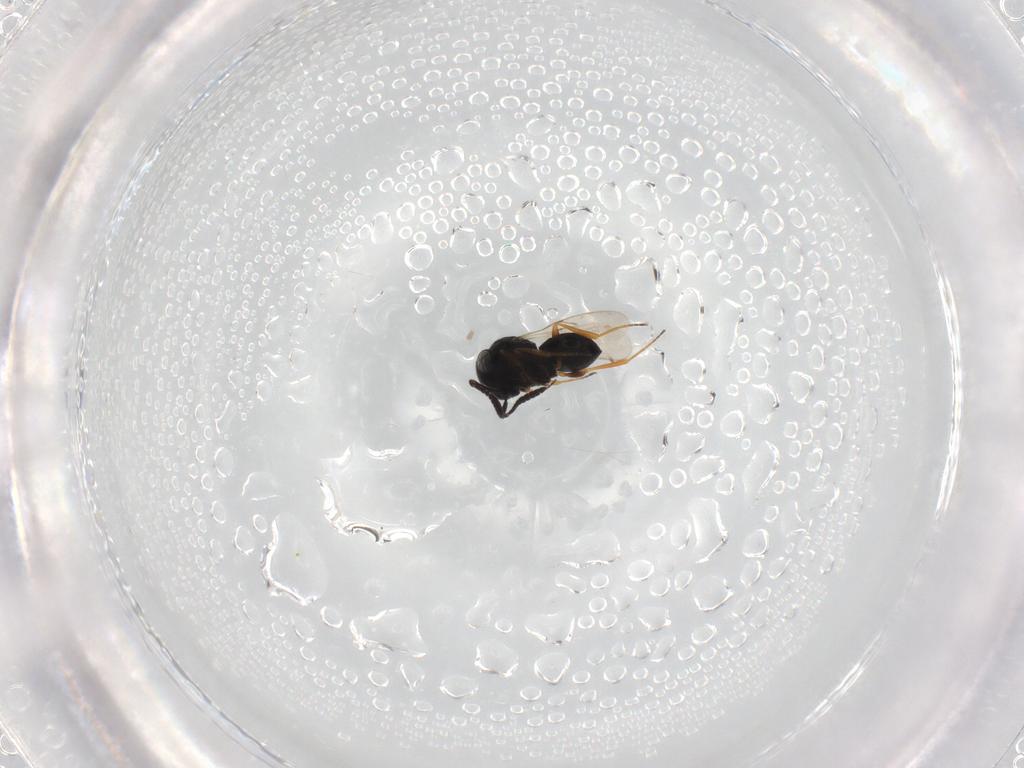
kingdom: Animalia
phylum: Arthropoda
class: Insecta
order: Hymenoptera
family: Scelionidae
